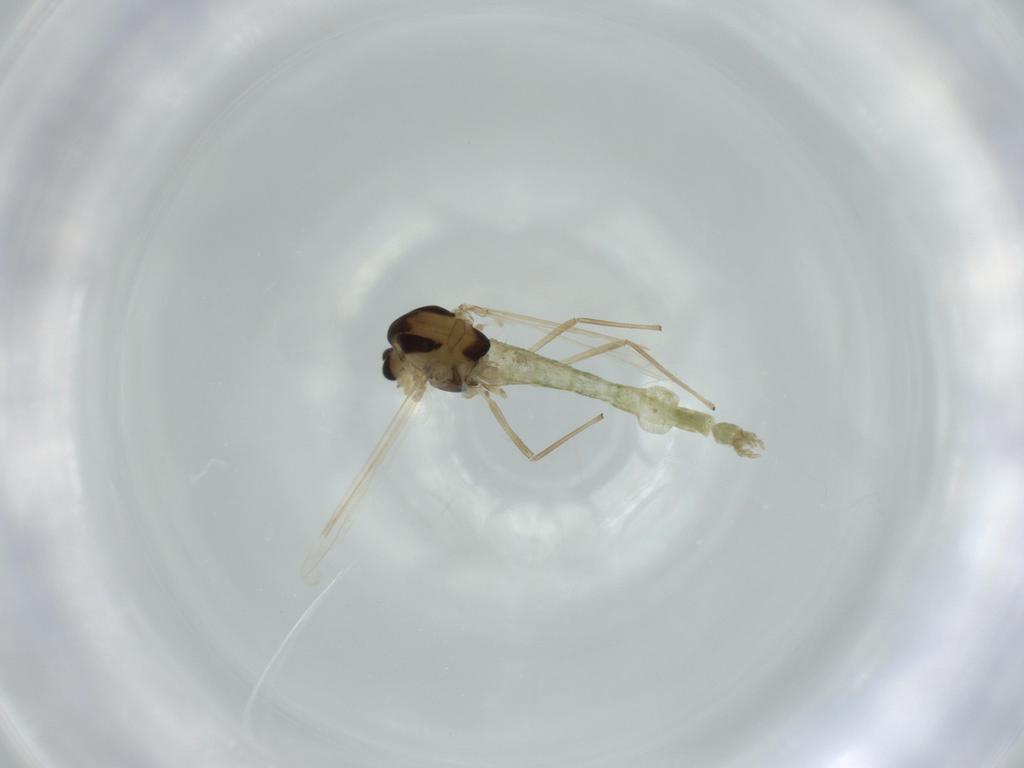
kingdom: Animalia
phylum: Arthropoda
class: Insecta
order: Diptera
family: Chironomidae
